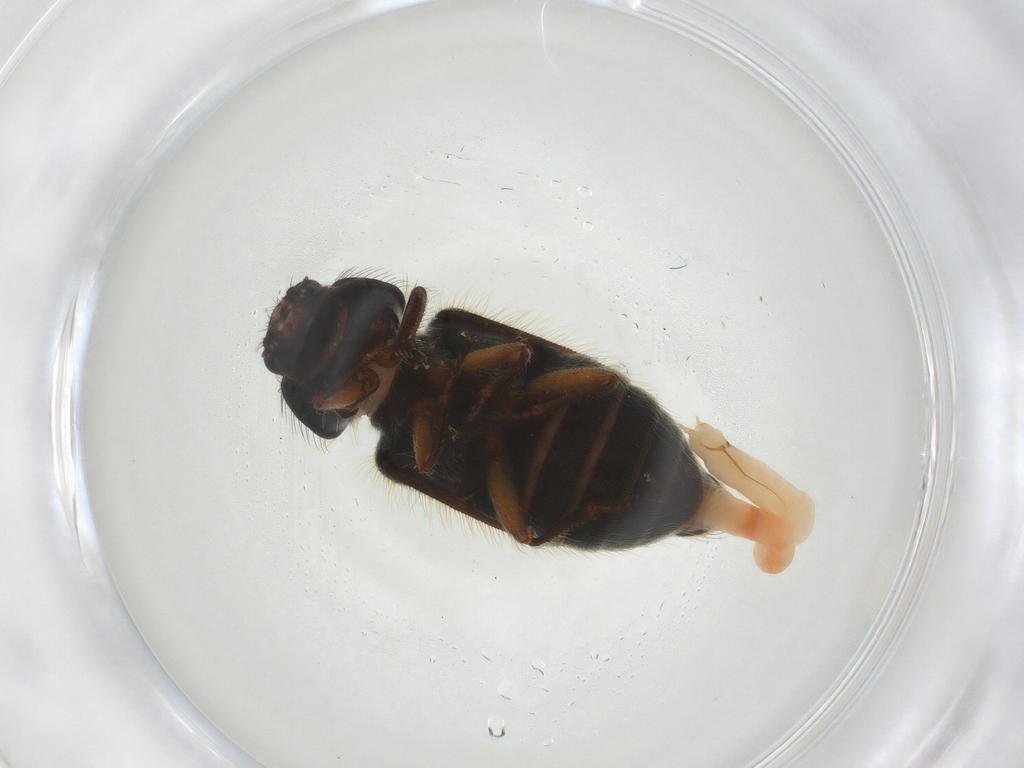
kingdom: Animalia
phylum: Arthropoda
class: Insecta
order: Coleoptera
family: Melyridae
